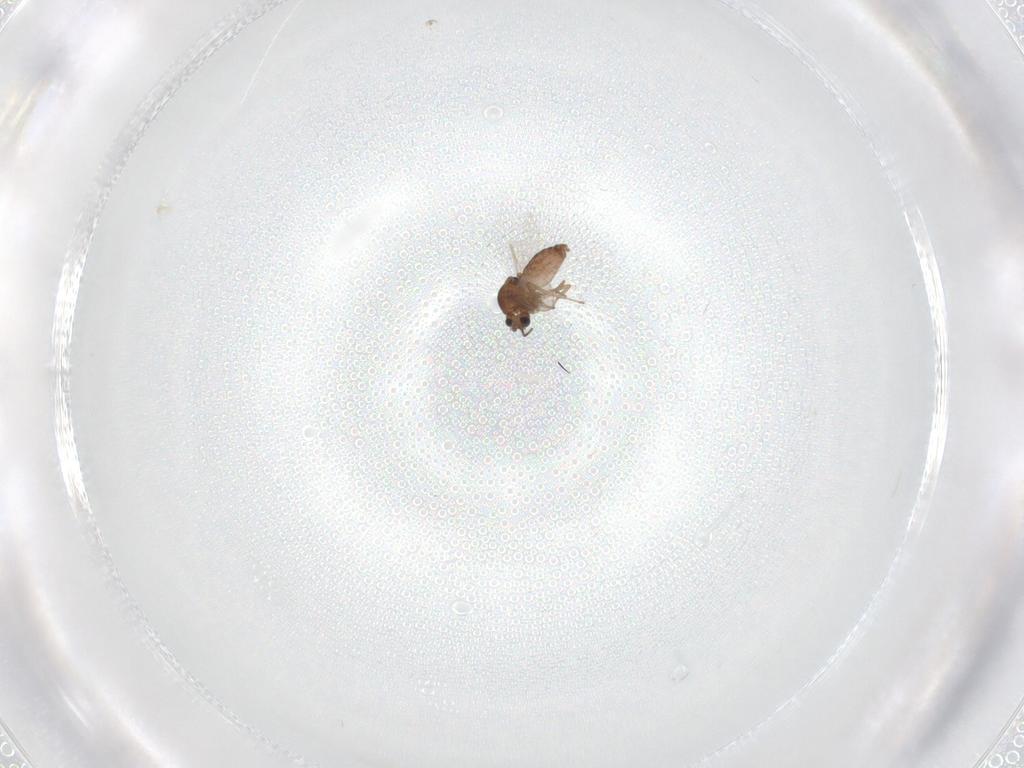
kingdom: Animalia
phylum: Arthropoda
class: Insecta
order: Diptera
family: Ceratopogonidae
